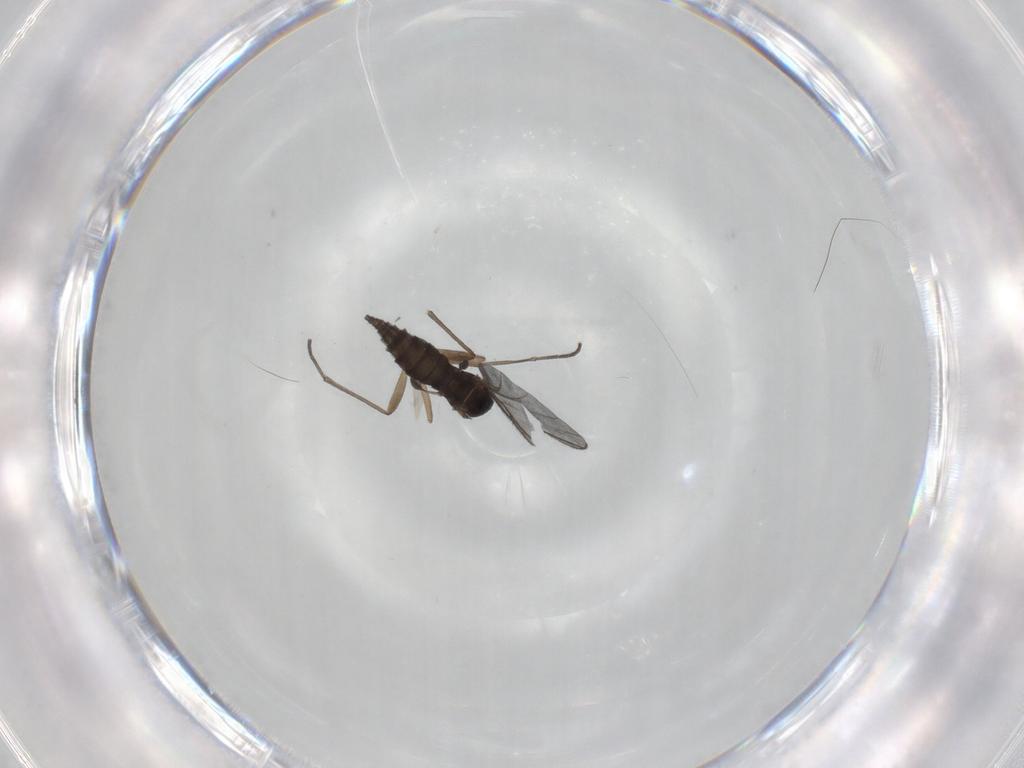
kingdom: Animalia
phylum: Arthropoda
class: Insecta
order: Diptera
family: Sciaridae
